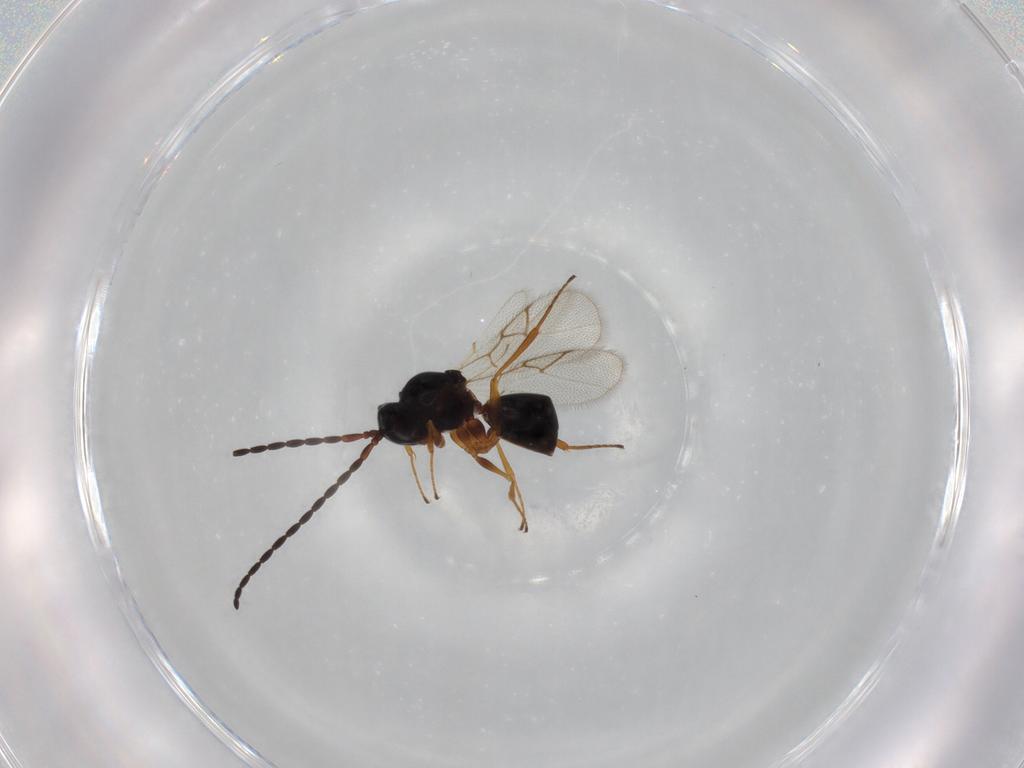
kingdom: Animalia
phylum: Arthropoda
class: Insecta
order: Hymenoptera
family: Figitidae
